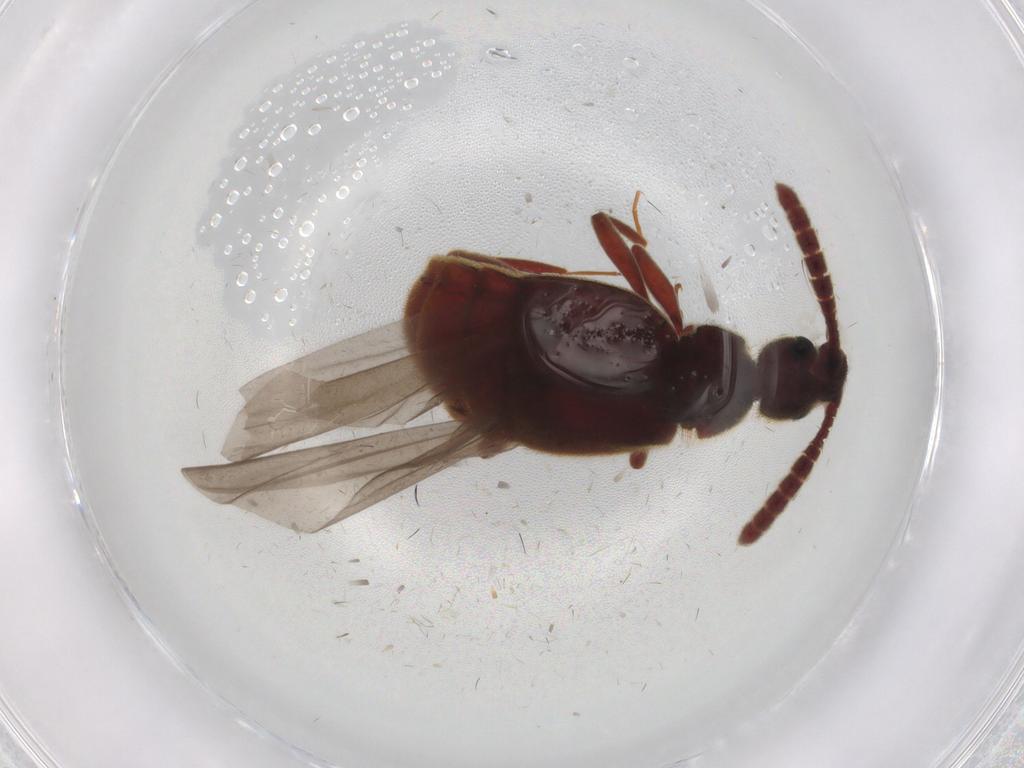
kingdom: Animalia
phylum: Arthropoda
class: Insecta
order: Coleoptera
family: Staphylinidae
